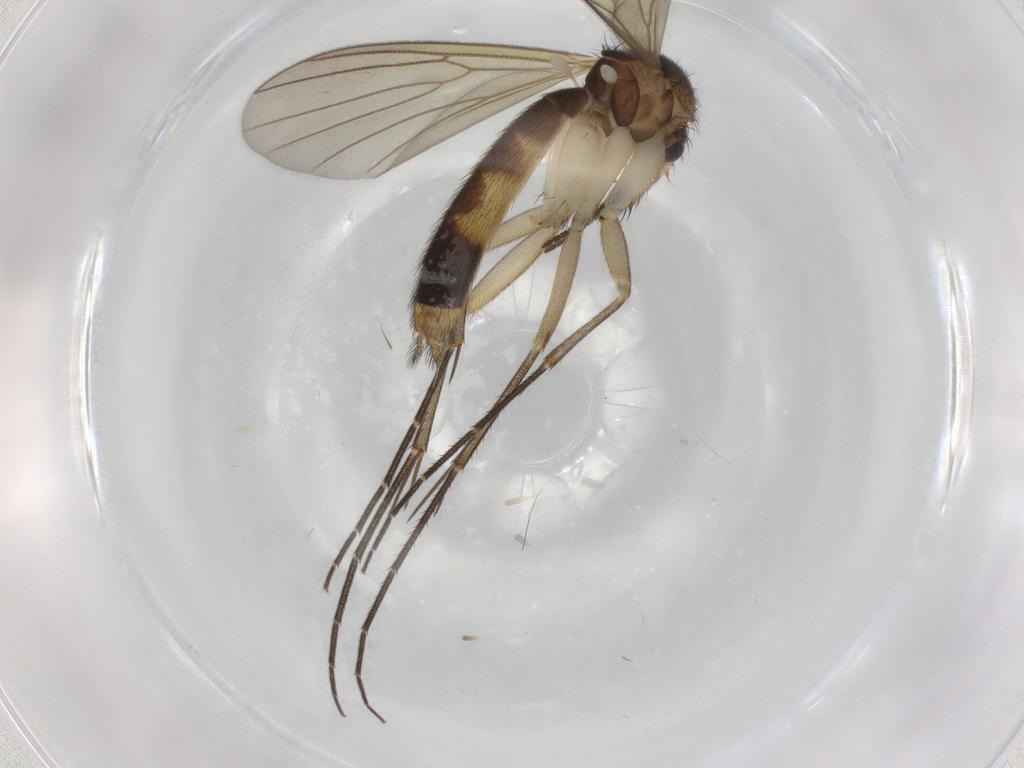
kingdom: Animalia
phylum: Arthropoda
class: Insecta
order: Diptera
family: Mycetophilidae
